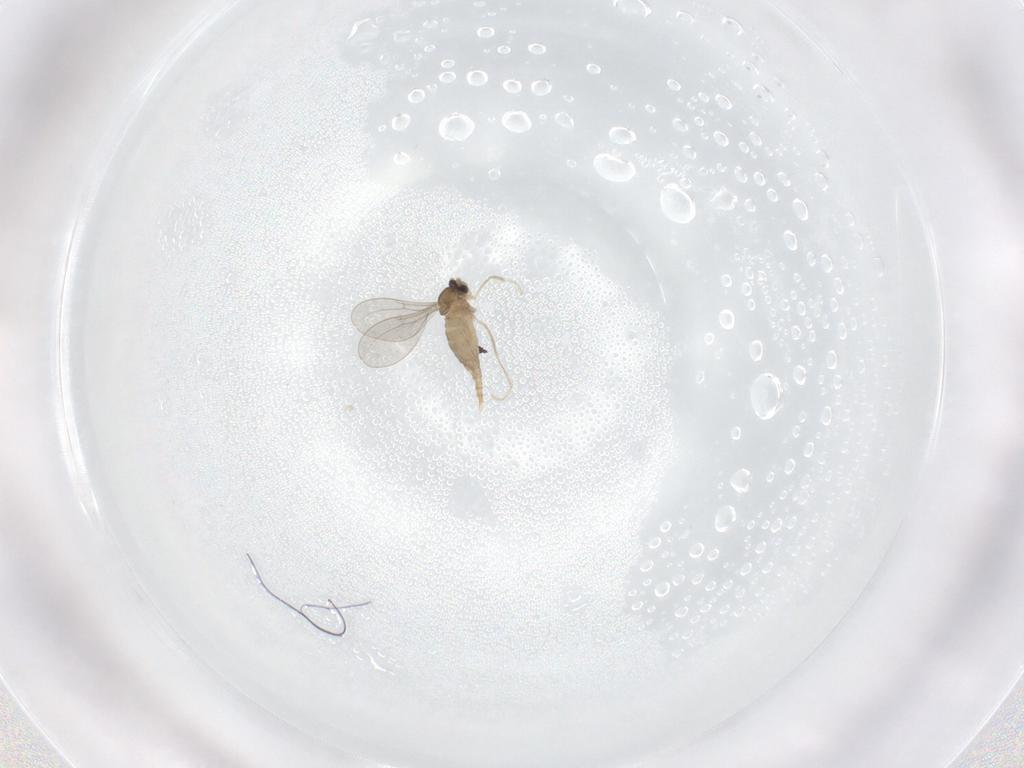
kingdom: Animalia
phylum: Arthropoda
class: Insecta
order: Diptera
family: Cecidomyiidae
